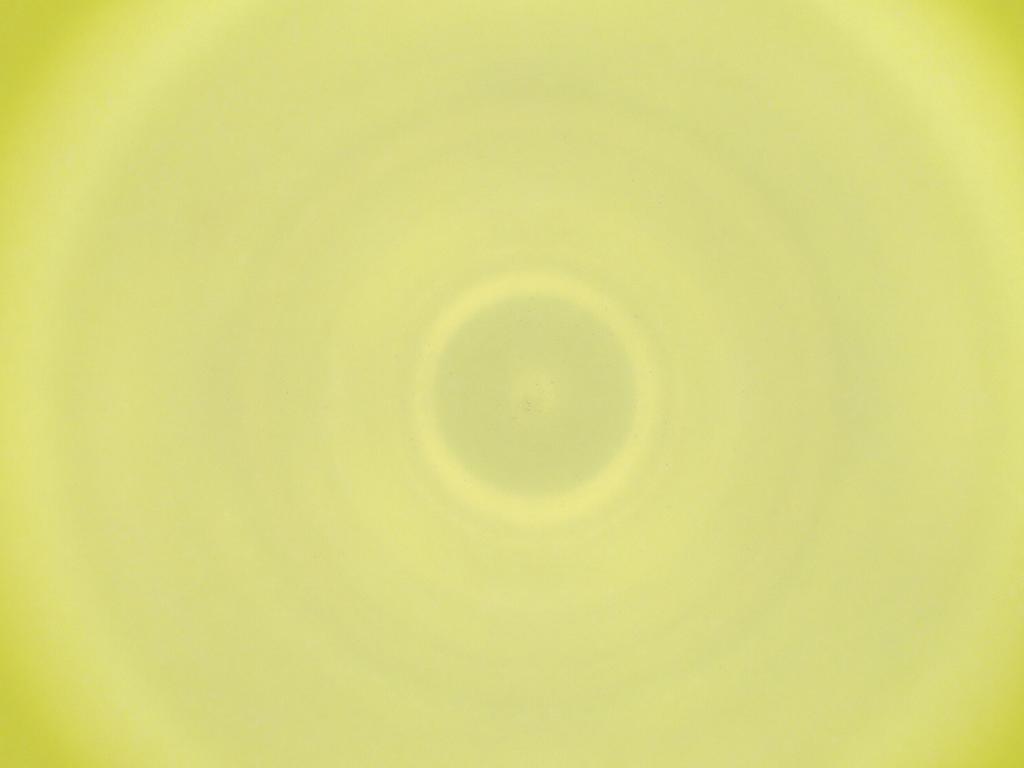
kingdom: Animalia
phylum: Arthropoda
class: Insecta
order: Diptera
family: Cecidomyiidae
